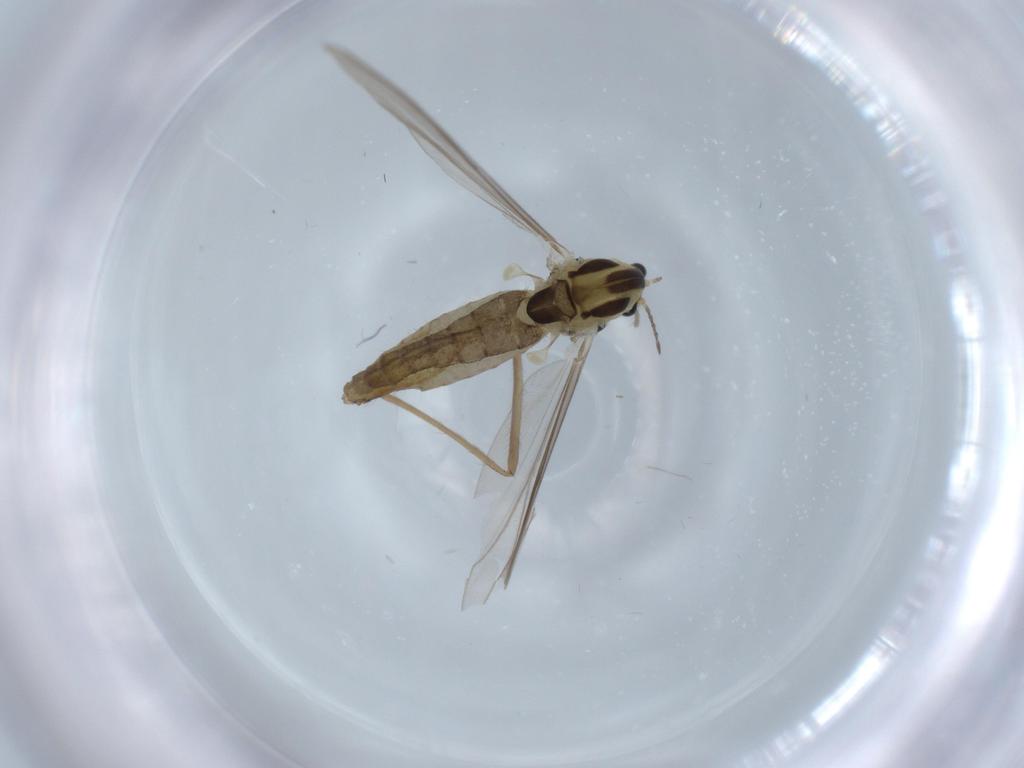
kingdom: Animalia
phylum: Arthropoda
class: Insecta
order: Diptera
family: Chironomidae
